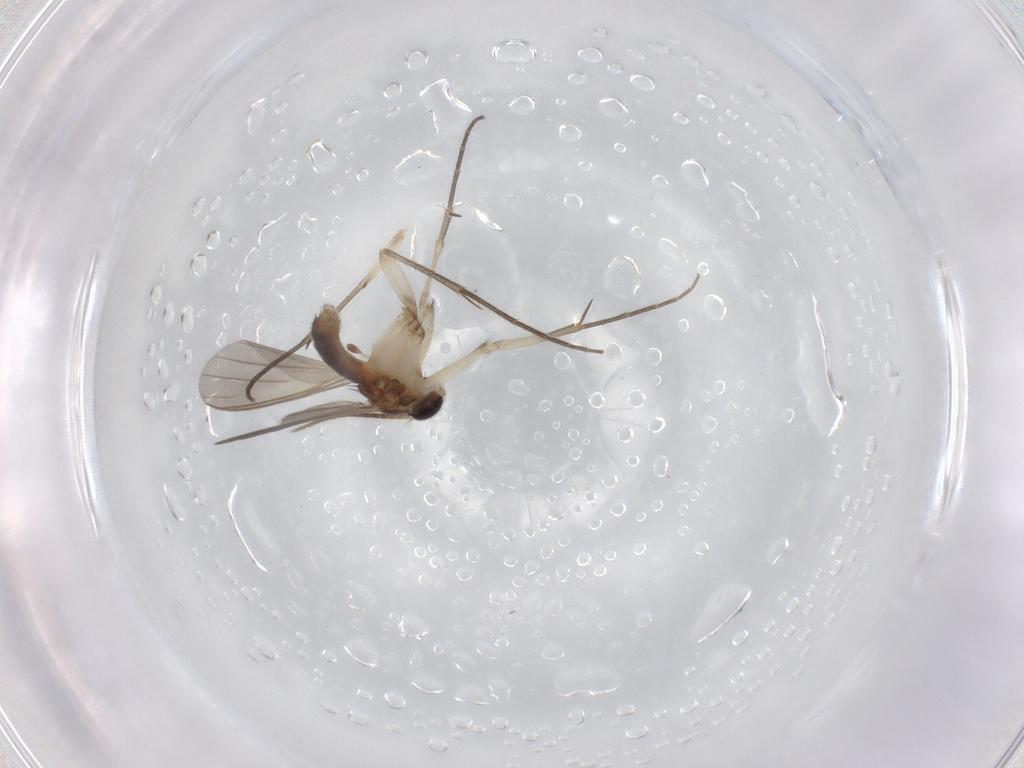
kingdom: Animalia
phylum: Arthropoda
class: Insecta
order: Diptera
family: Mycetophilidae
